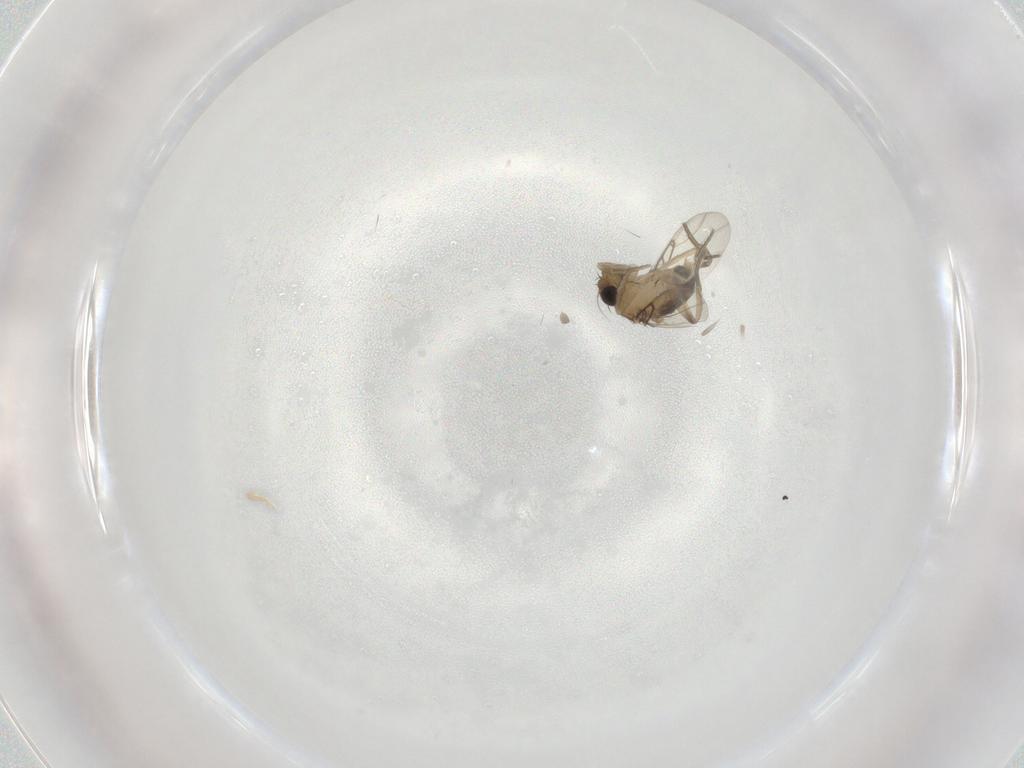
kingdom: Animalia
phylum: Arthropoda
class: Insecta
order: Diptera
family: Phoridae
